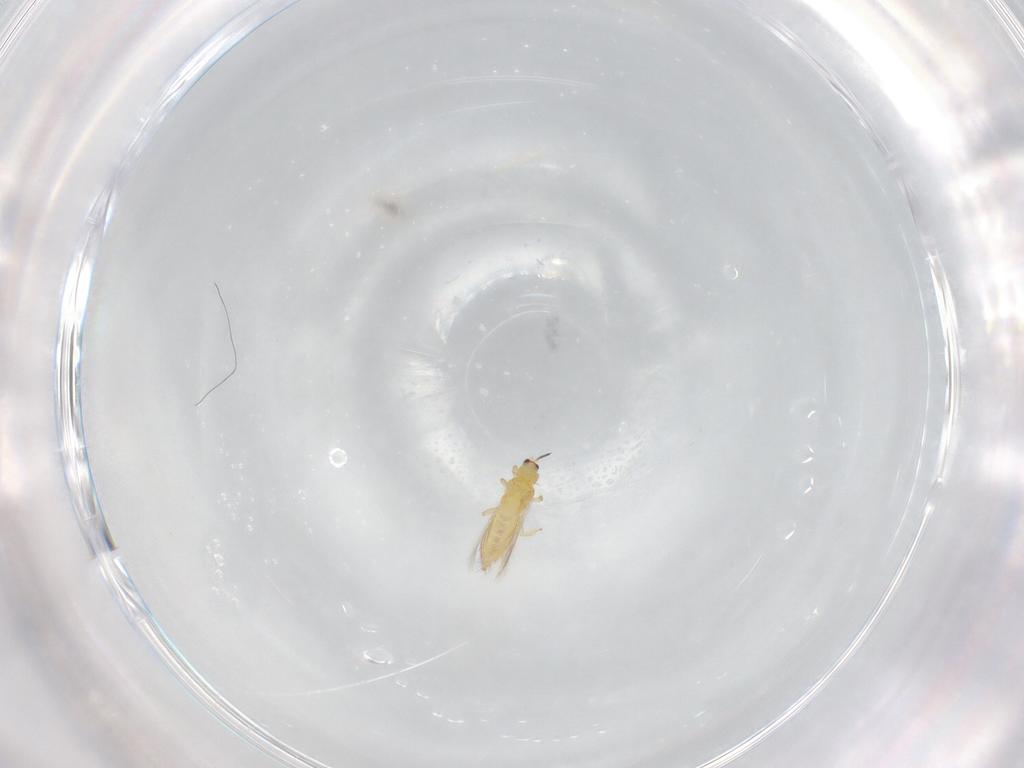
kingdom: Animalia
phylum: Arthropoda
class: Insecta
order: Thysanoptera
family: Thripidae
